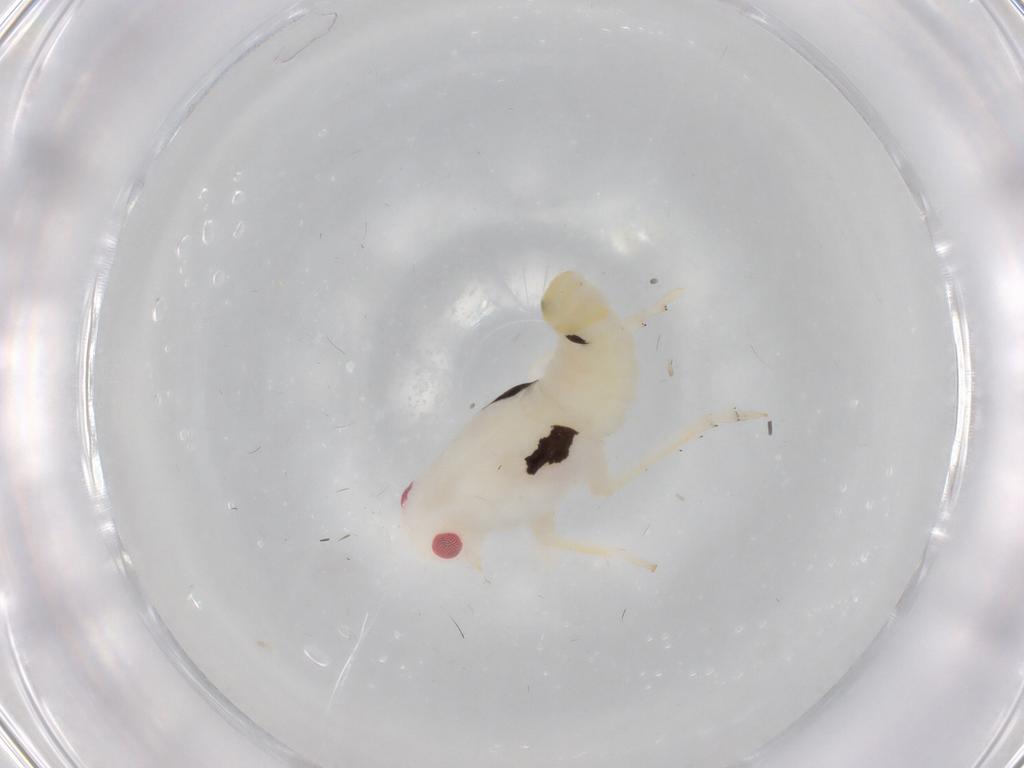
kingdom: Animalia
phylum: Arthropoda
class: Insecta
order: Hemiptera
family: Flatidae
